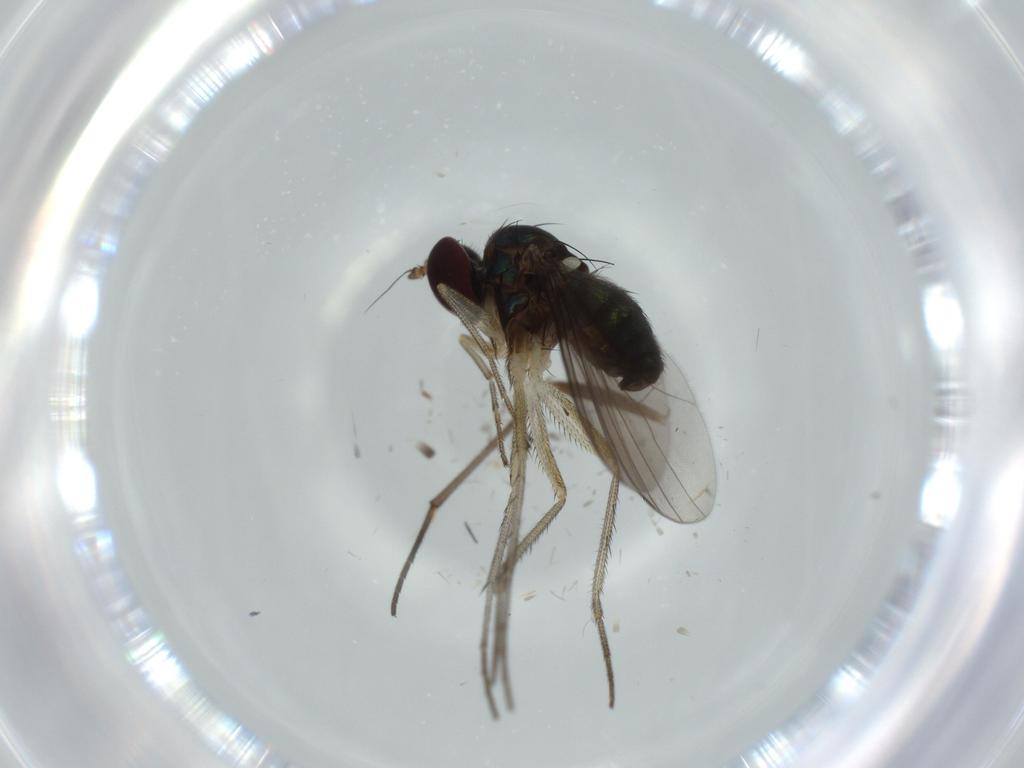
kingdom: Animalia
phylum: Arthropoda
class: Insecta
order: Diptera
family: Dolichopodidae
